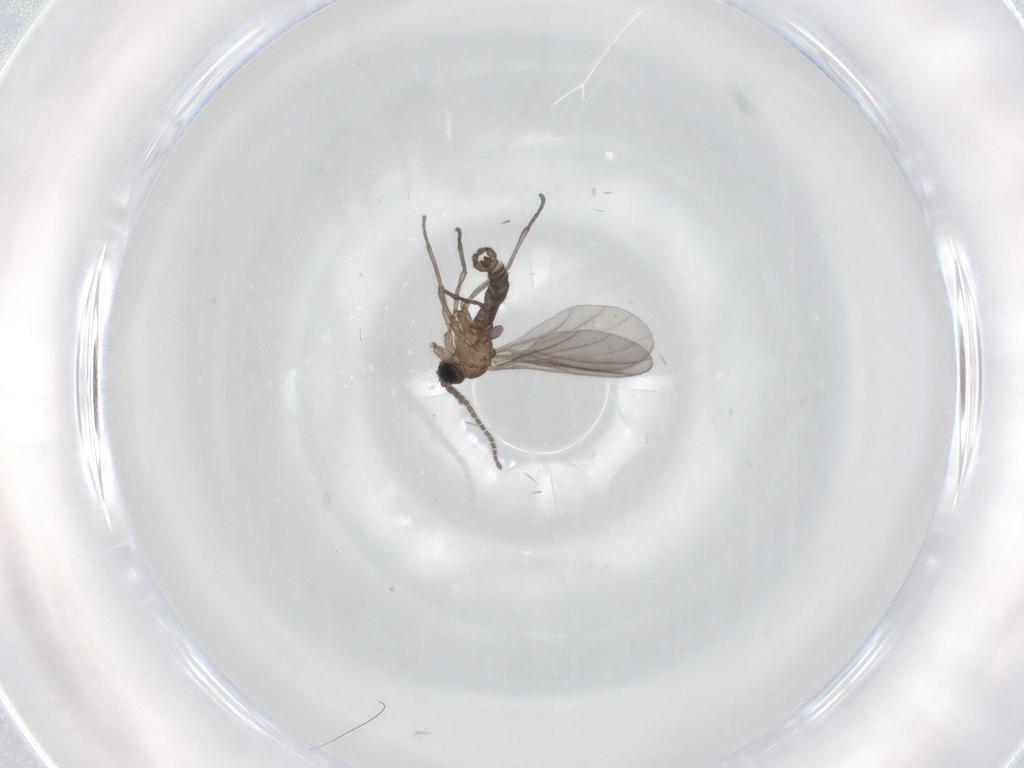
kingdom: Animalia
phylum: Arthropoda
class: Insecta
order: Diptera
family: Sciaridae
